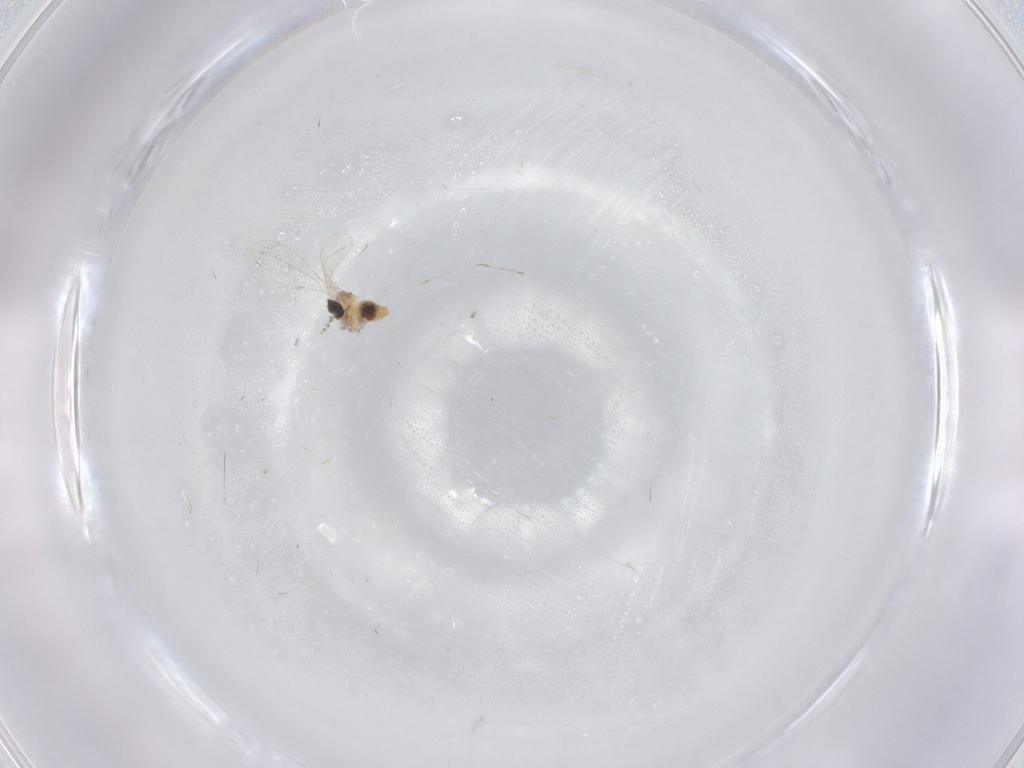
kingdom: Animalia
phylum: Arthropoda
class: Insecta
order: Diptera
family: Cecidomyiidae
